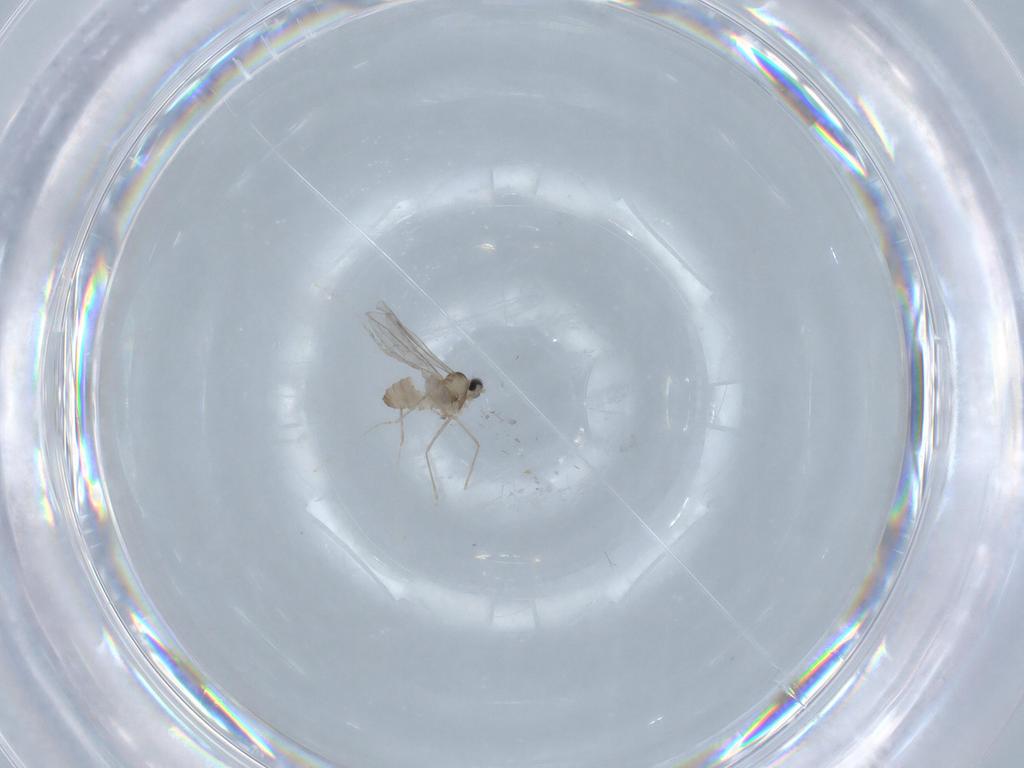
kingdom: Animalia
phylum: Arthropoda
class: Insecta
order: Diptera
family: Cecidomyiidae
